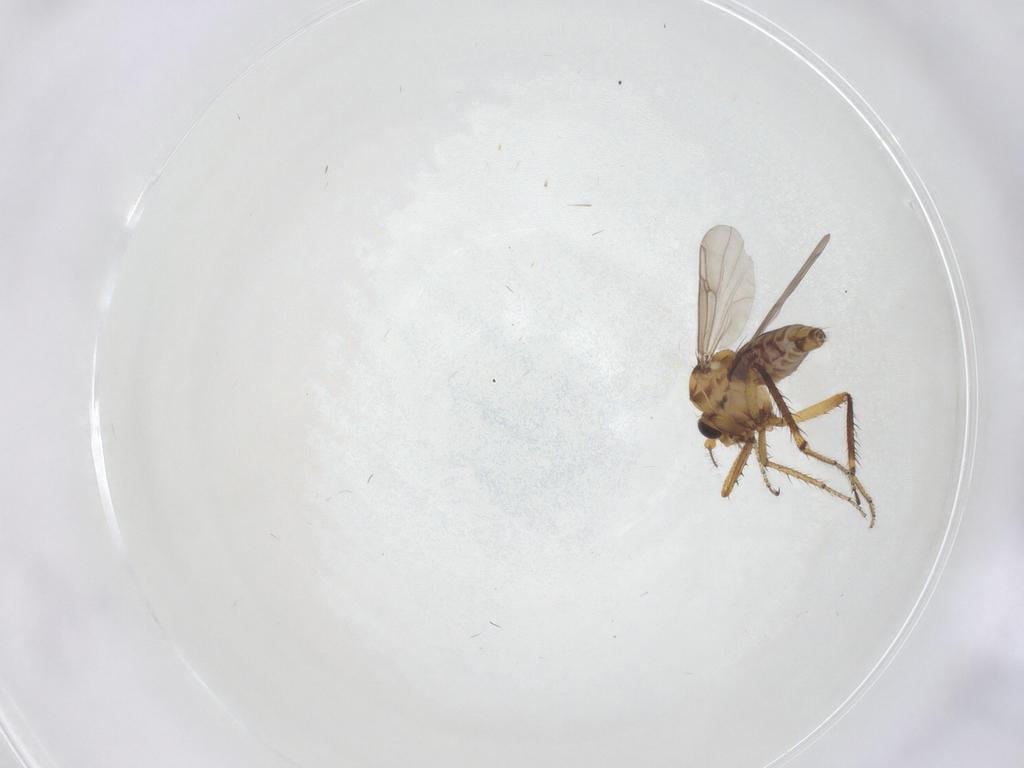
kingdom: Animalia
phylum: Arthropoda
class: Insecta
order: Diptera
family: Ceratopogonidae
